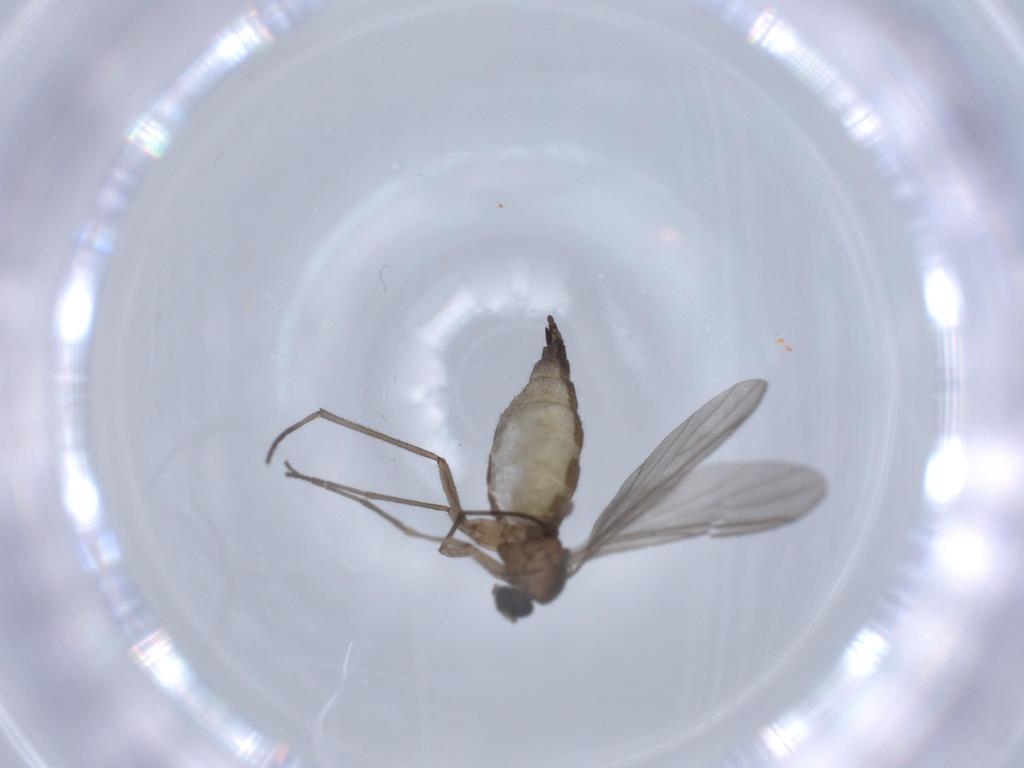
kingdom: Animalia
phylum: Arthropoda
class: Insecta
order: Diptera
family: Sciaridae
